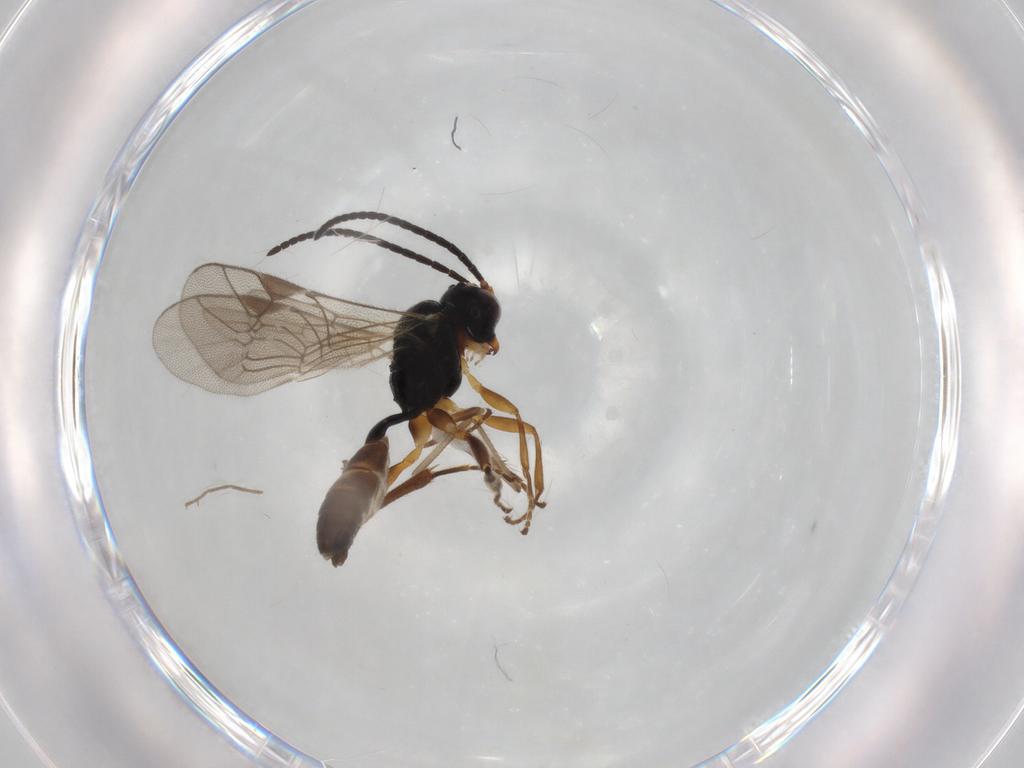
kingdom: Animalia
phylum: Arthropoda
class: Insecta
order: Hymenoptera
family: Ichneumonidae
